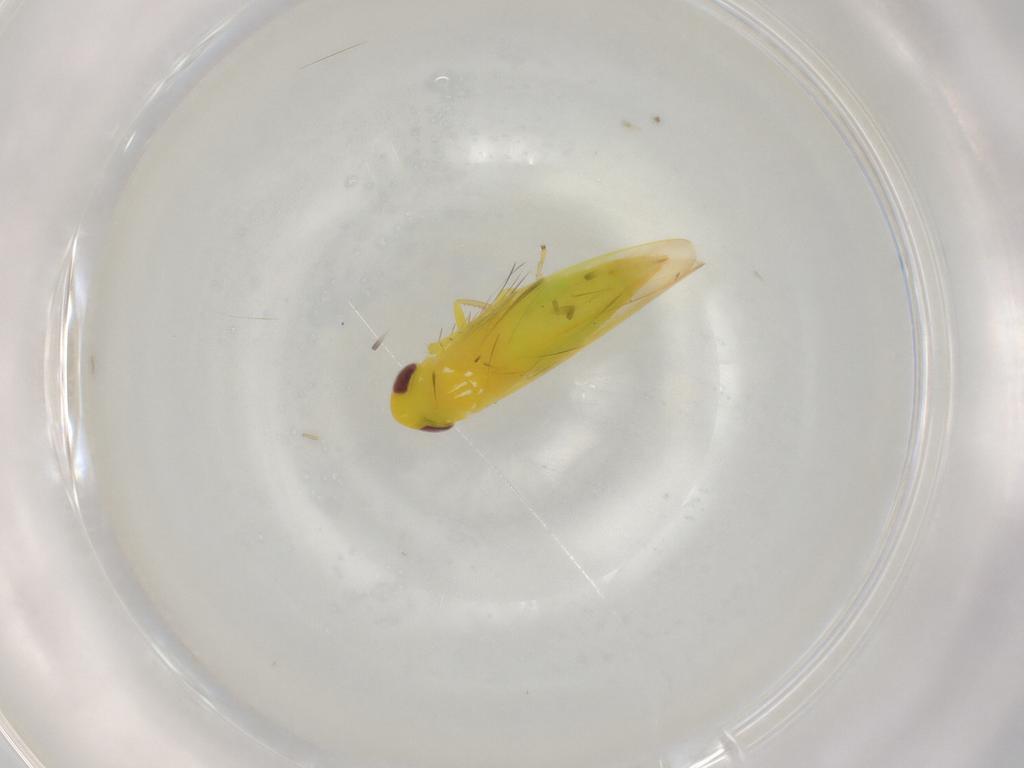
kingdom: Animalia
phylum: Arthropoda
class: Insecta
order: Hemiptera
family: Cicadellidae
